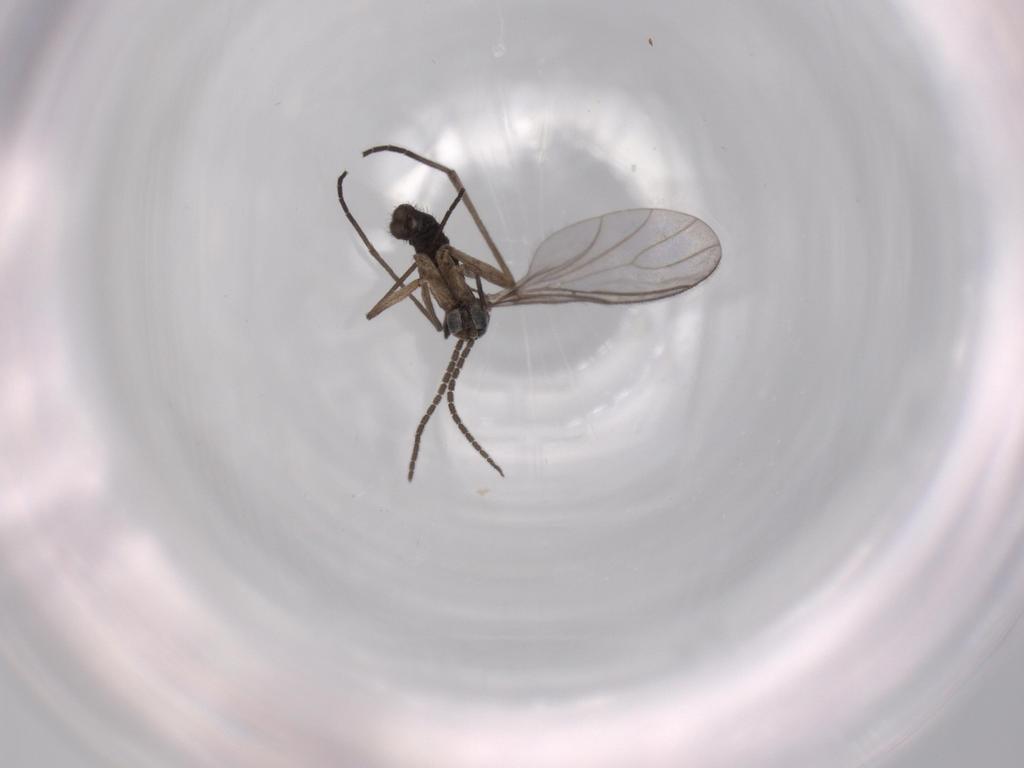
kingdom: Animalia
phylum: Arthropoda
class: Insecta
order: Diptera
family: Sciaridae
